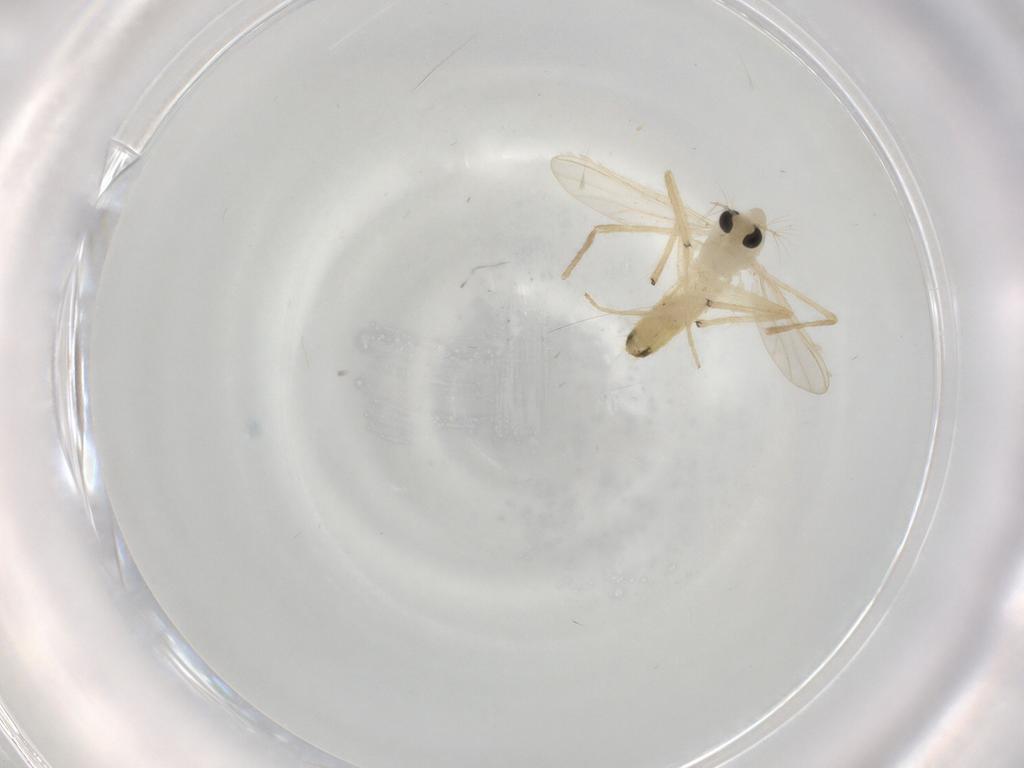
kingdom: Animalia
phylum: Arthropoda
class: Insecta
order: Diptera
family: Chironomidae
